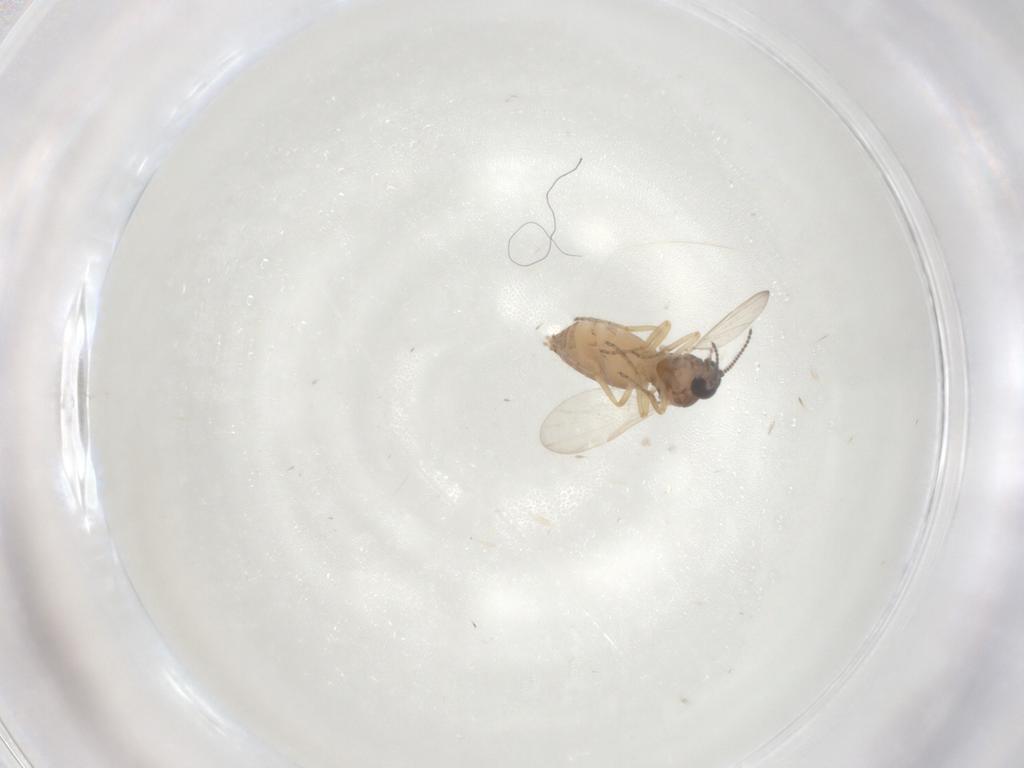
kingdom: Animalia
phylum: Arthropoda
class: Insecta
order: Diptera
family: Ceratopogonidae
